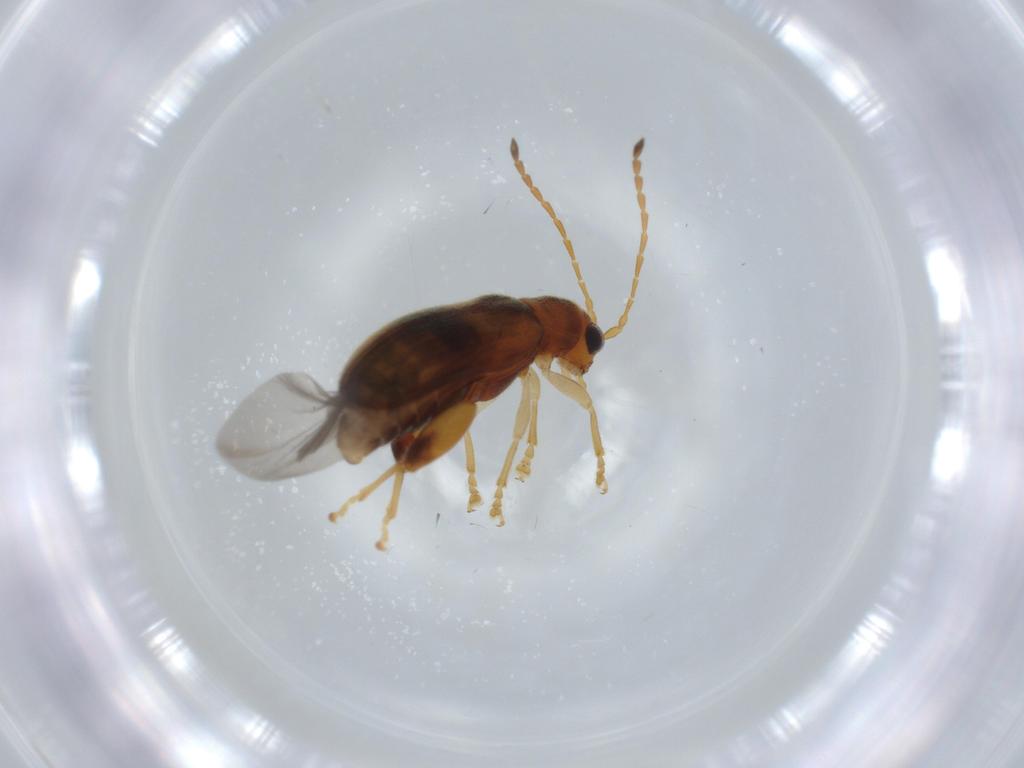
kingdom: Animalia
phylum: Arthropoda
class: Insecta
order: Coleoptera
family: Chrysomelidae
